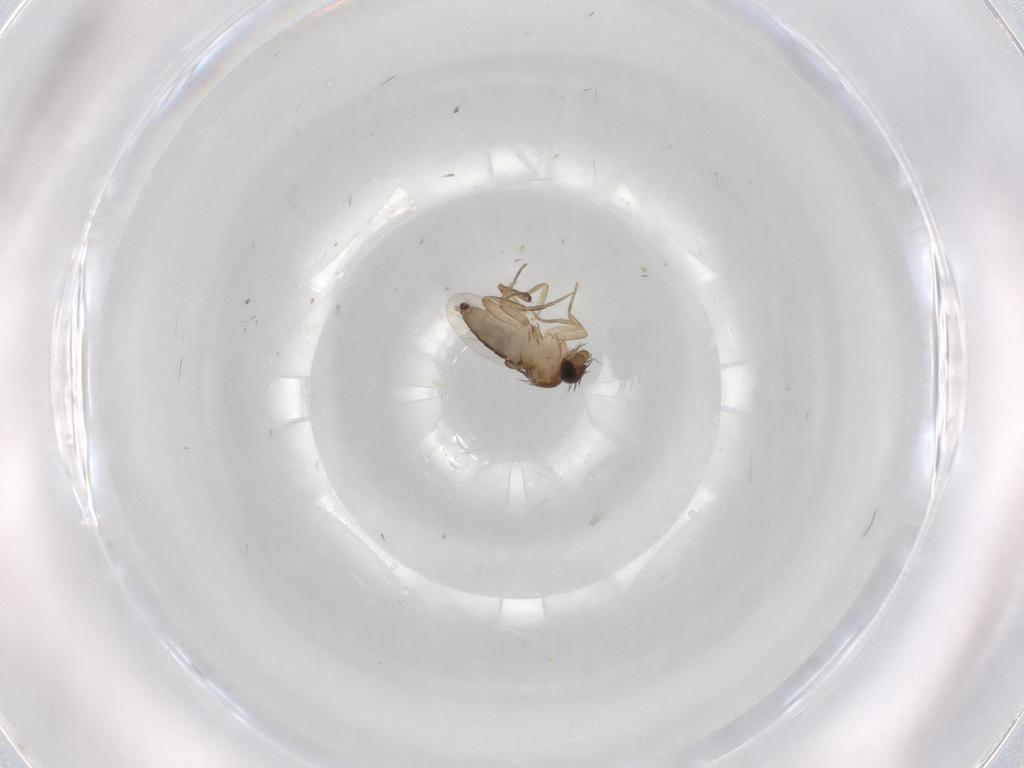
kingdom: Animalia
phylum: Arthropoda
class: Insecta
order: Diptera
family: Phoridae
